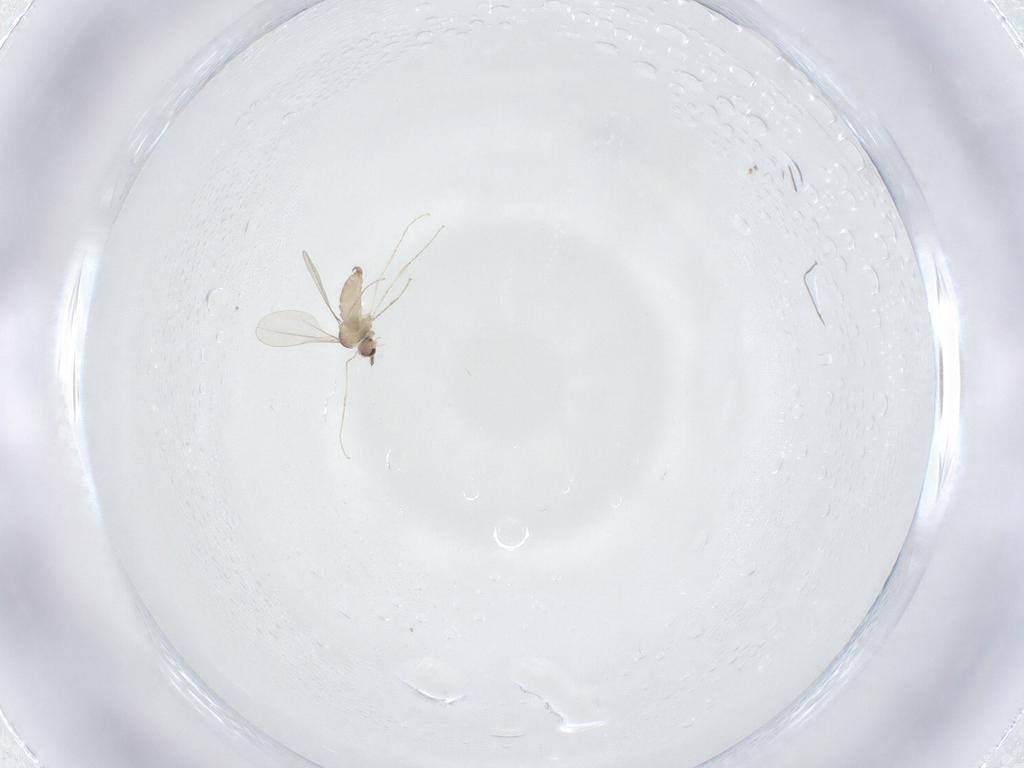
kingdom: Animalia
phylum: Arthropoda
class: Insecta
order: Diptera
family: Cecidomyiidae
